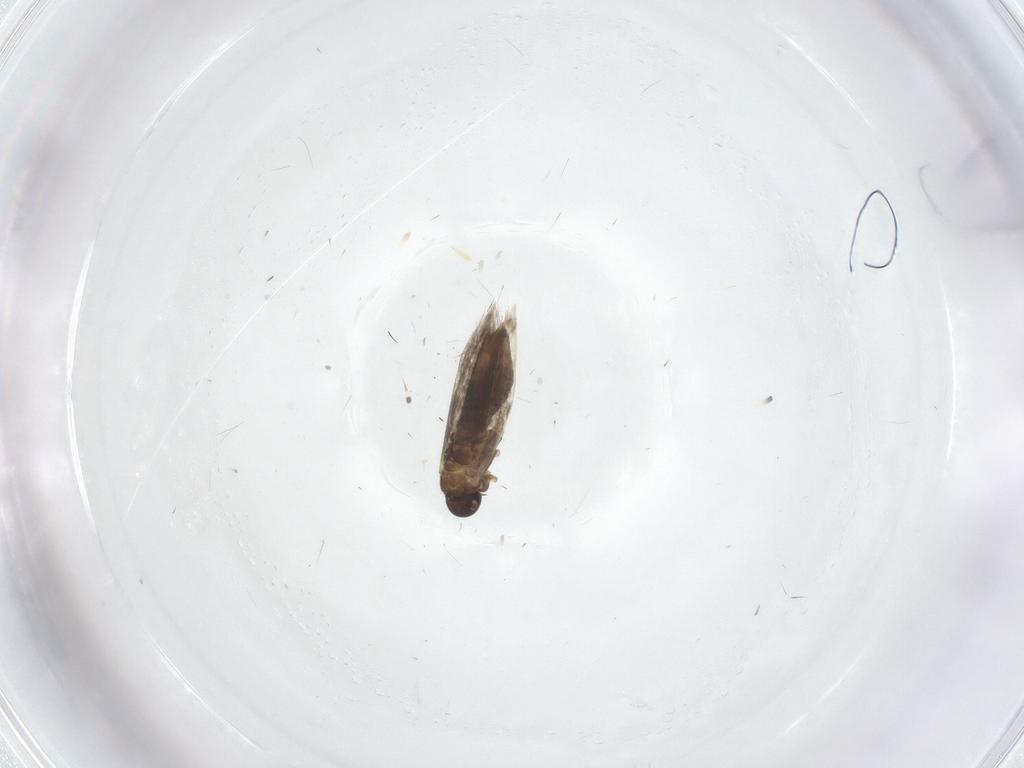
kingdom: Animalia
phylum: Arthropoda
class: Insecta
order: Lepidoptera
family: Heliozelidae
